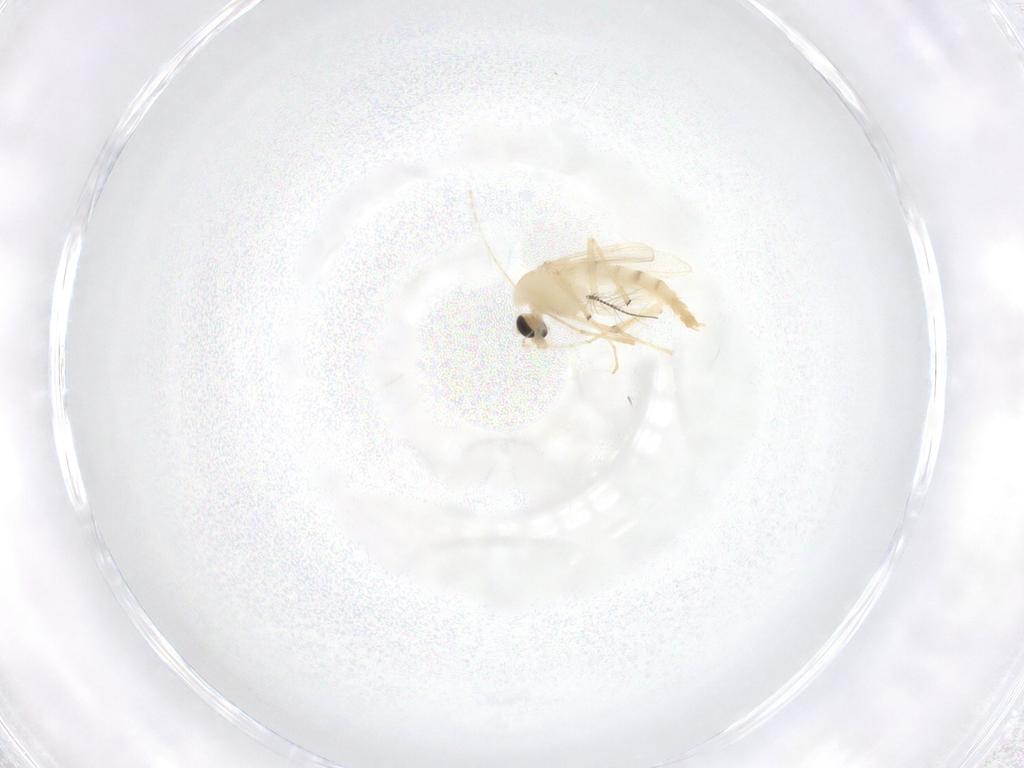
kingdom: Animalia
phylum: Arthropoda
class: Insecta
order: Diptera
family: Chironomidae
